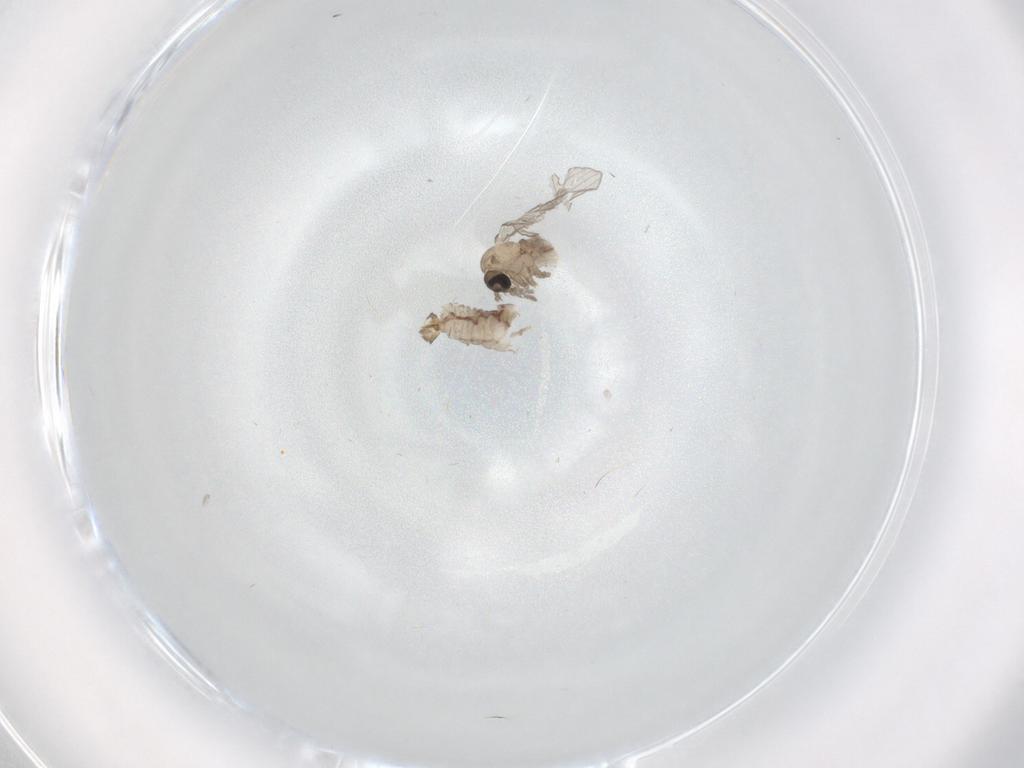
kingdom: Animalia
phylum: Arthropoda
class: Insecta
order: Diptera
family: Psychodidae
